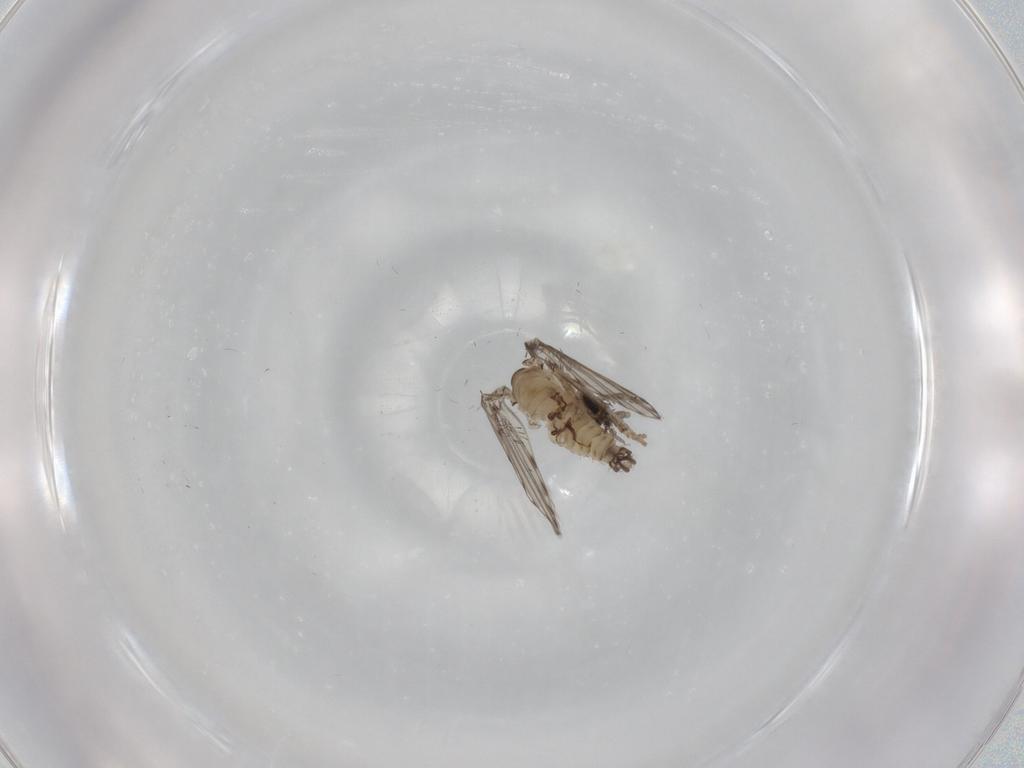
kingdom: Animalia
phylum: Arthropoda
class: Insecta
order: Diptera
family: Psychodidae
